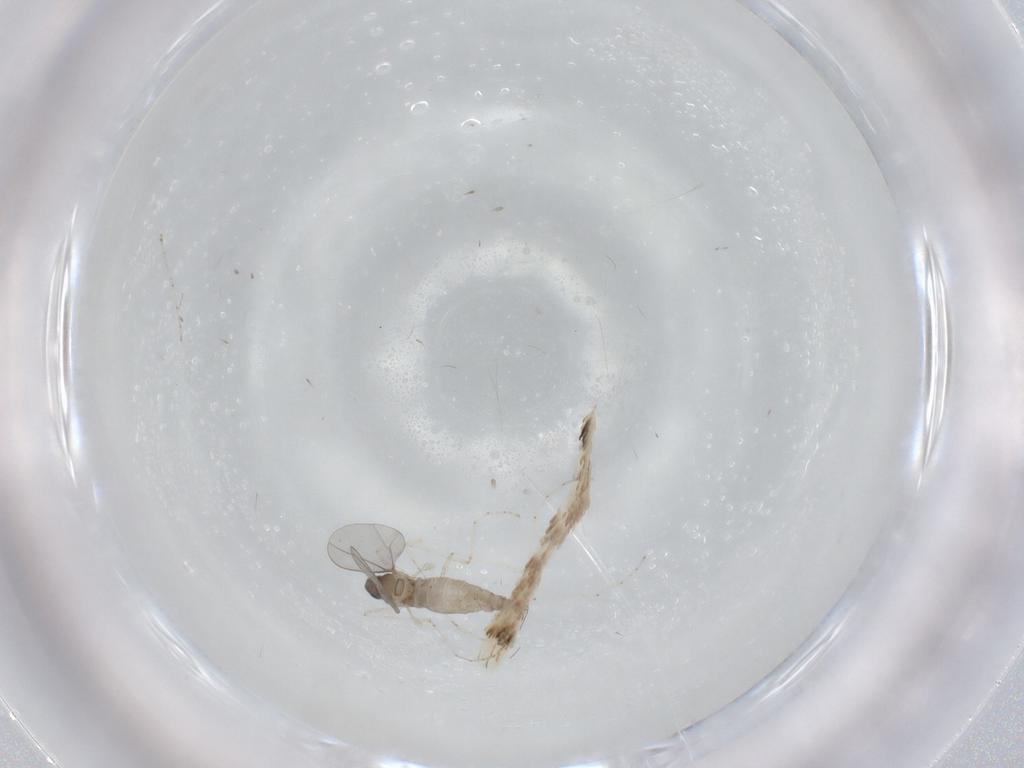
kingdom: Animalia
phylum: Arthropoda
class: Insecta
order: Diptera
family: Cecidomyiidae
